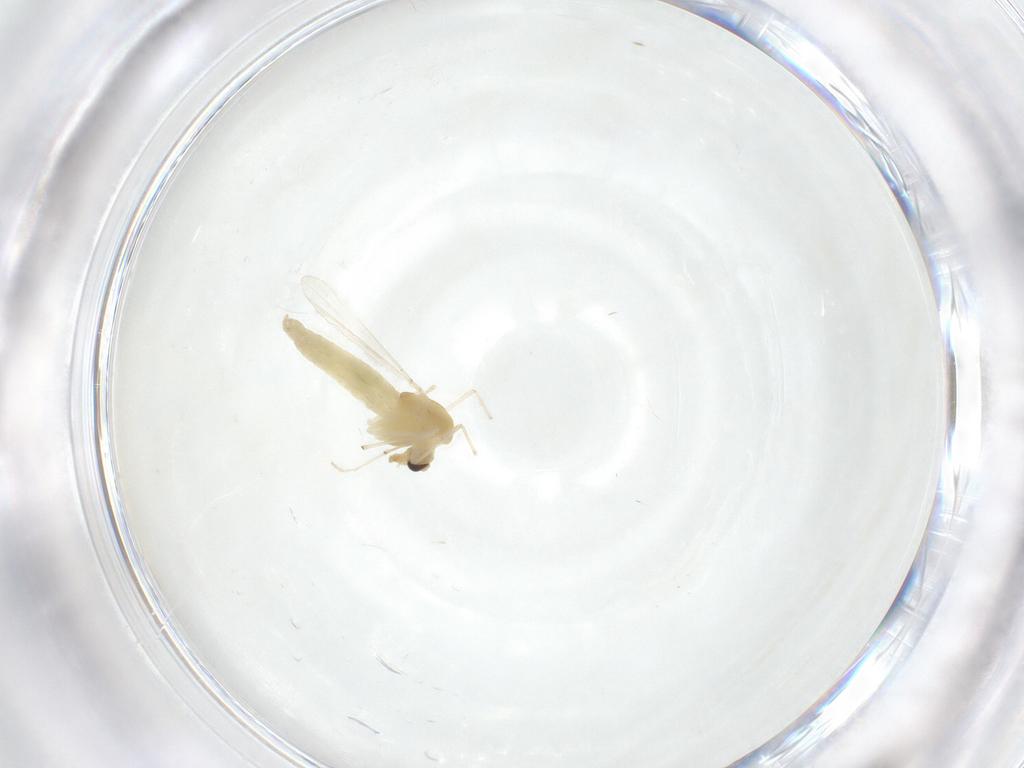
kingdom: Animalia
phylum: Arthropoda
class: Insecta
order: Diptera
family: Chironomidae
